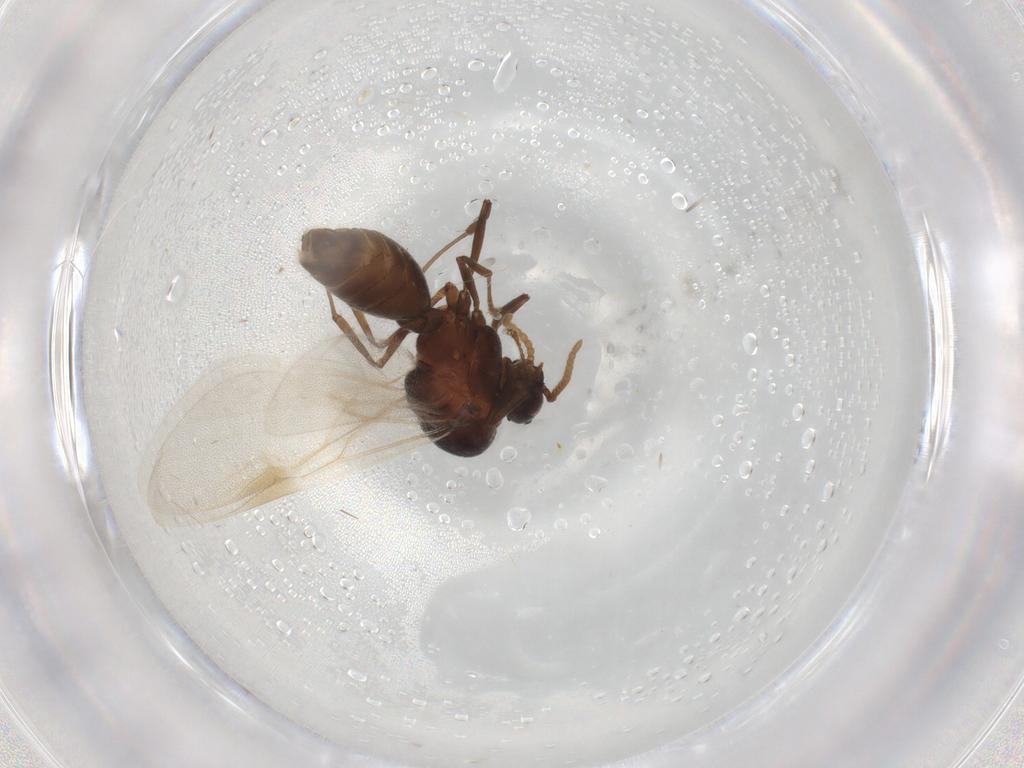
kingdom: Animalia
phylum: Arthropoda
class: Insecta
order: Hymenoptera
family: Formicidae
